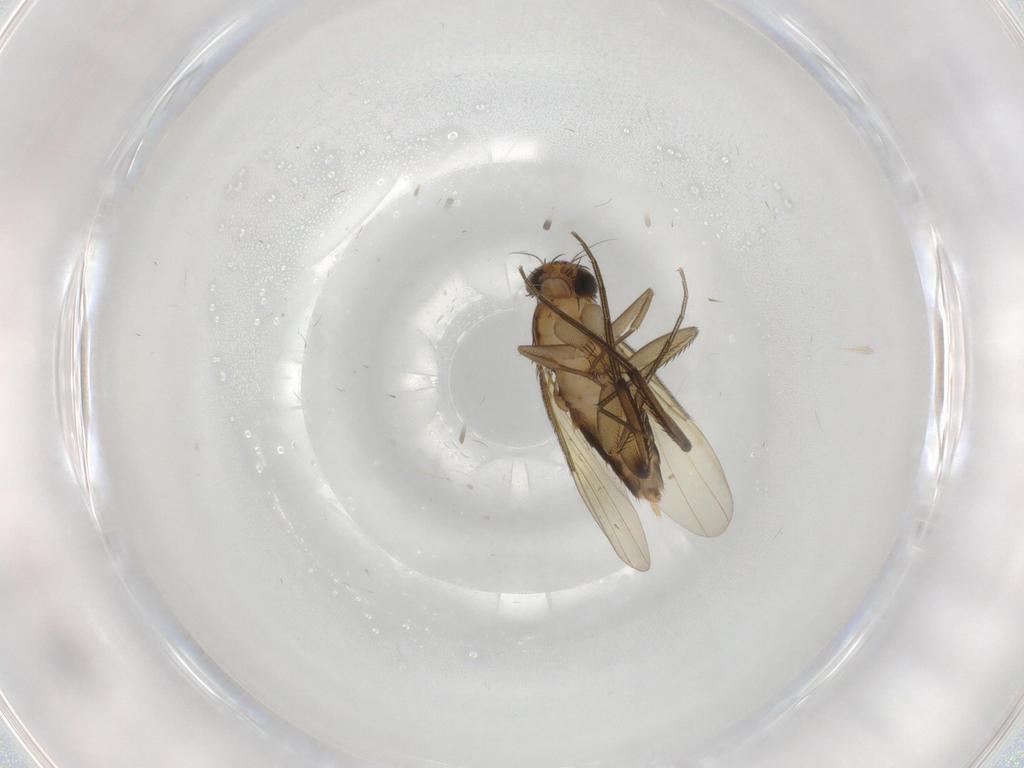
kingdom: Animalia
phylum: Arthropoda
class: Insecta
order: Diptera
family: Phoridae
